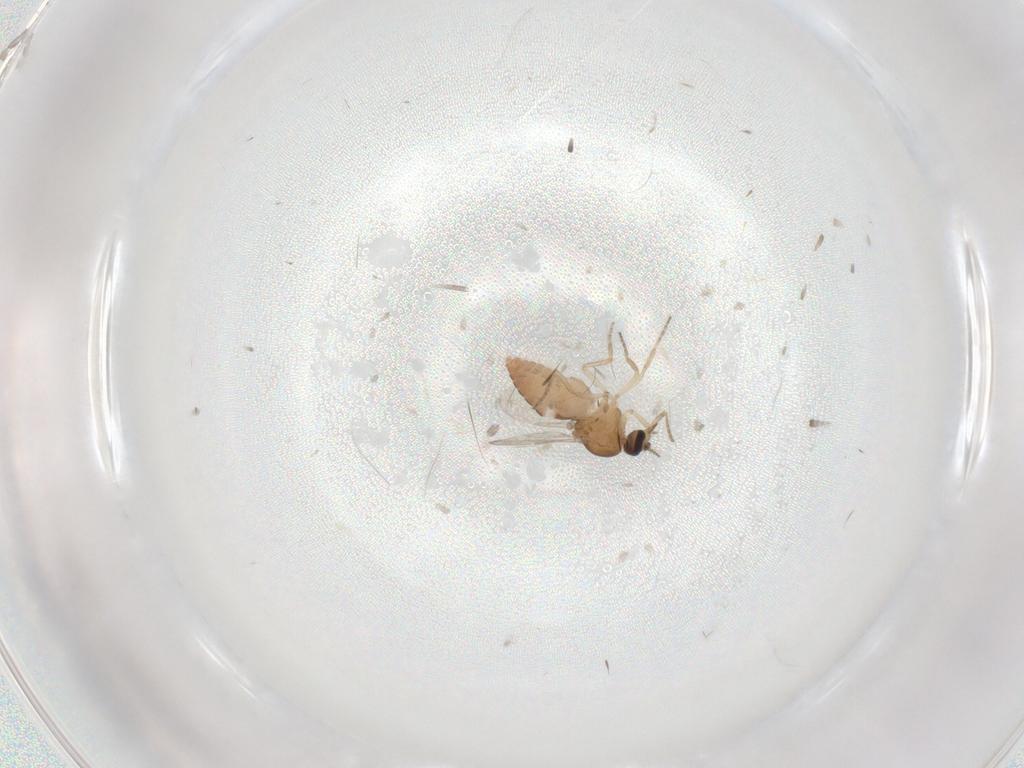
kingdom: Animalia
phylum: Arthropoda
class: Insecta
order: Diptera
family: Ceratopogonidae
